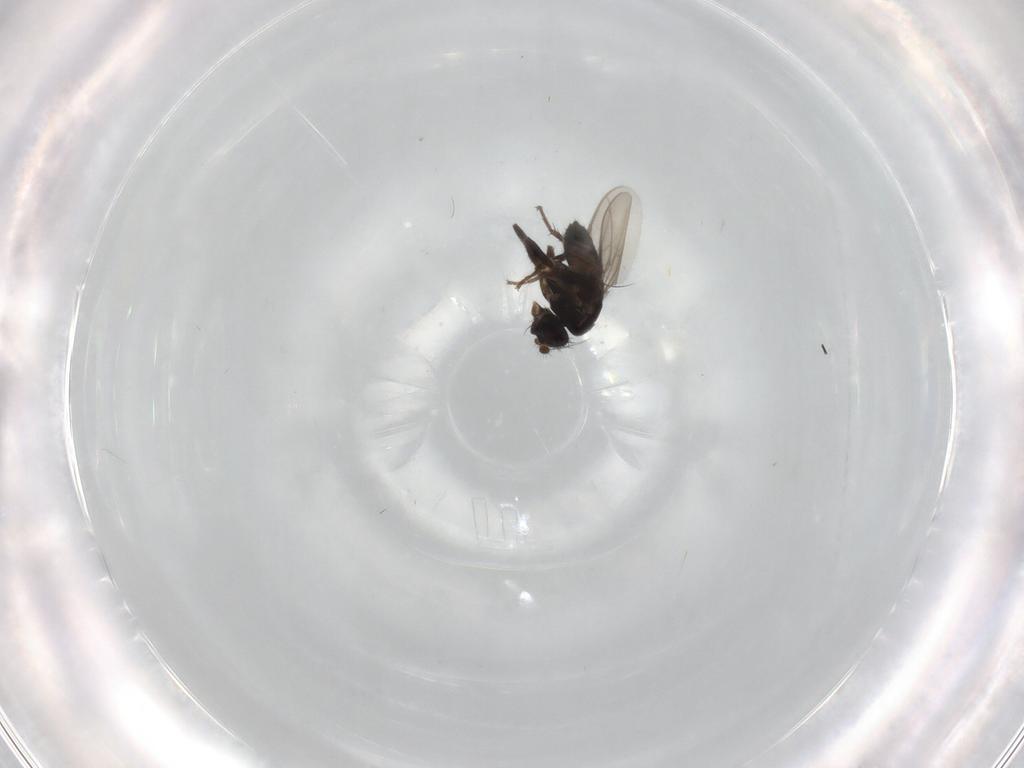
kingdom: Animalia
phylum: Arthropoda
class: Insecta
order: Diptera
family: Sphaeroceridae
